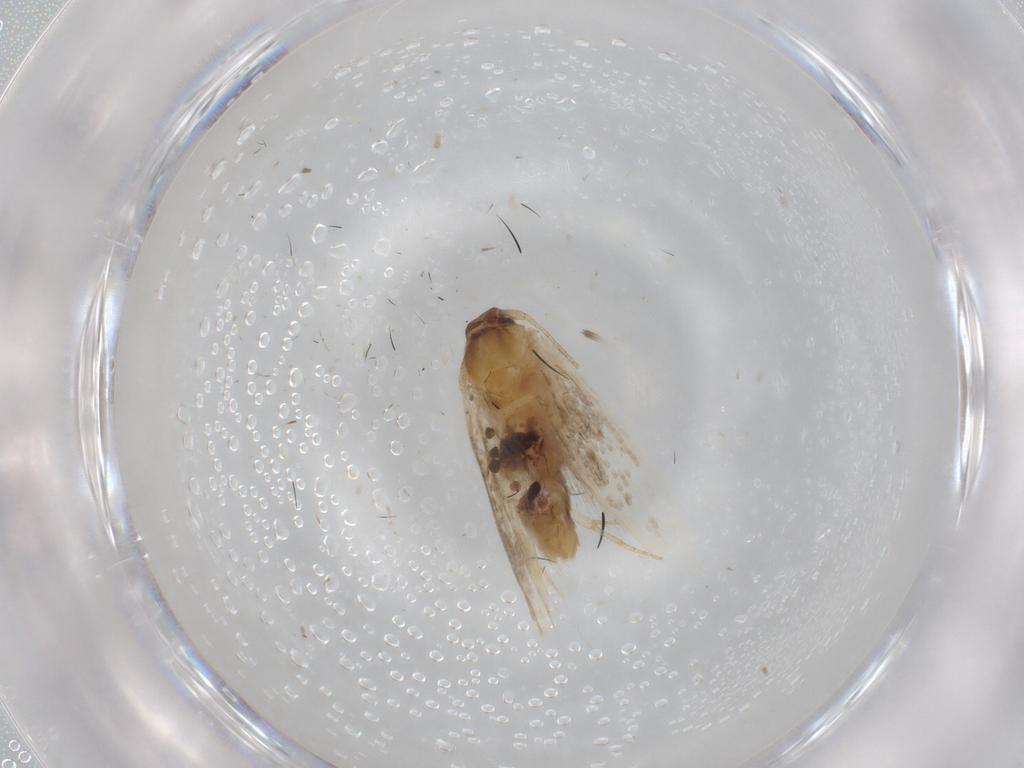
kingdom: Animalia
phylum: Arthropoda
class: Insecta
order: Lepidoptera
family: Cosmopterigidae
